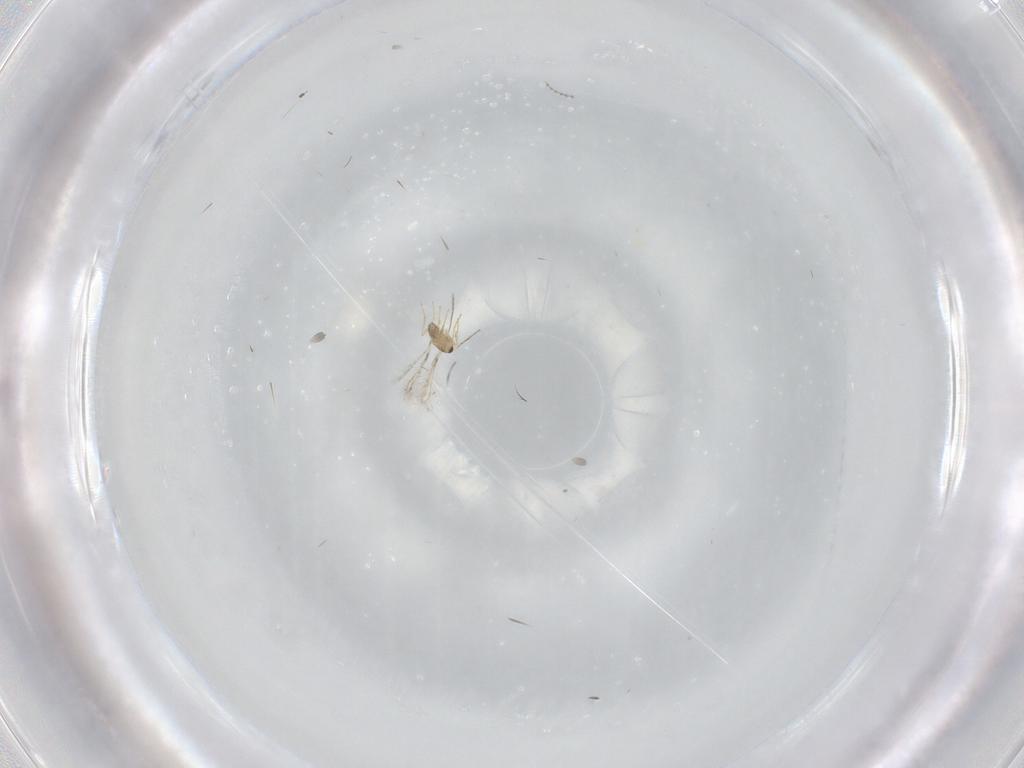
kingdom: Animalia
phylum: Arthropoda
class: Insecta
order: Hymenoptera
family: Mymaridae
